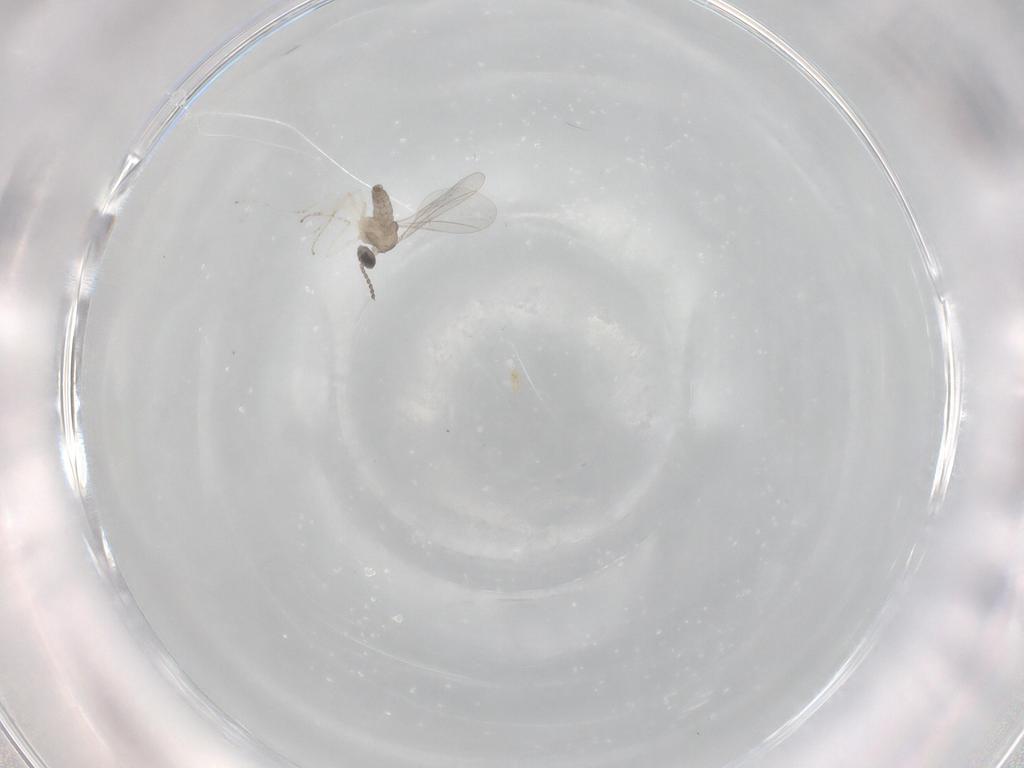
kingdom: Animalia
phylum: Arthropoda
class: Insecta
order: Diptera
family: Cecidomyiidae
